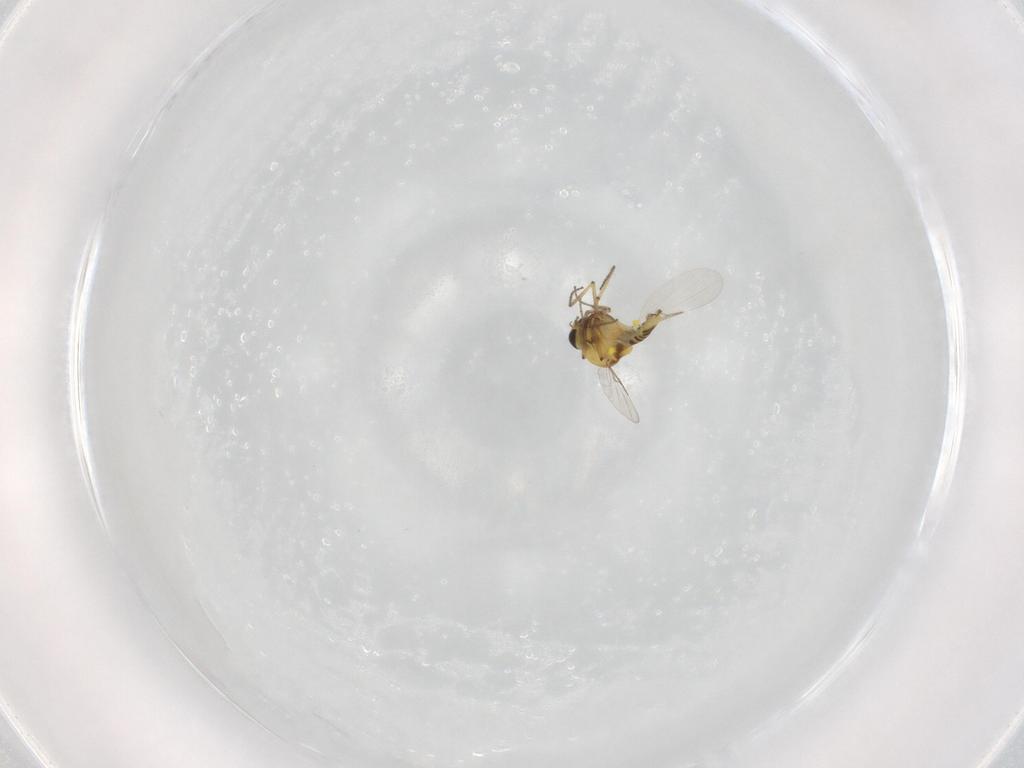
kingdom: Animalia
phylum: Arthropoda
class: Insecta
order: Diptera
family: Ceratopogonidae
